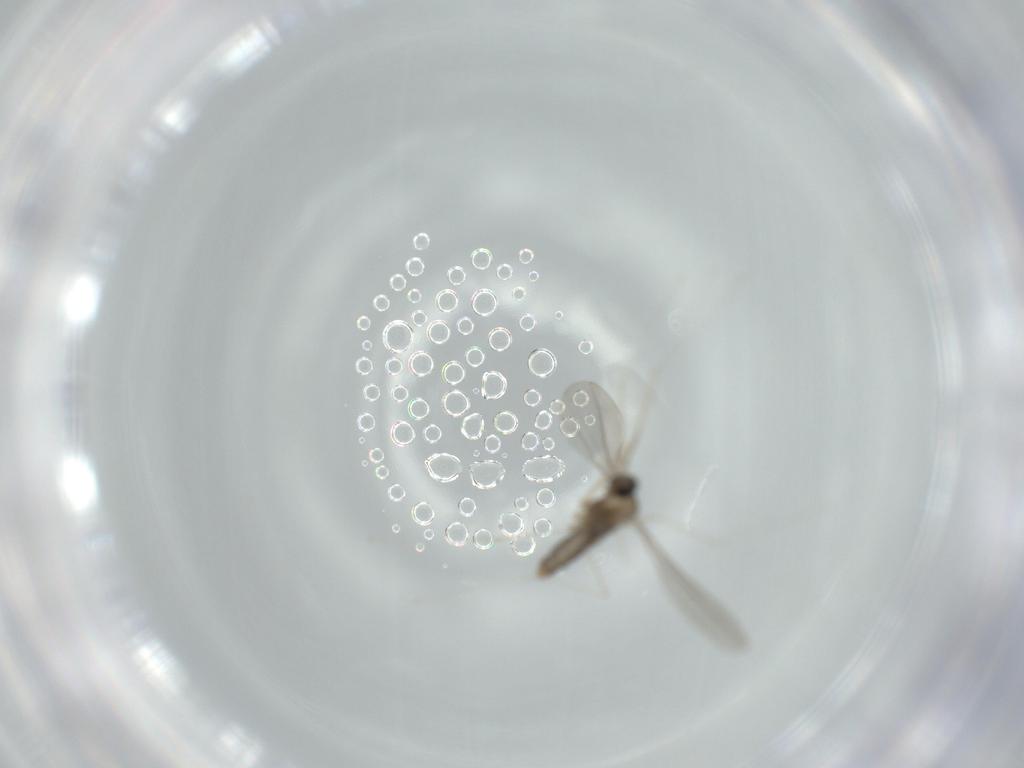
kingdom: Animalia
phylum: Arthropoda
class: Insecta
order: Diptera
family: Cecidomyiidae
